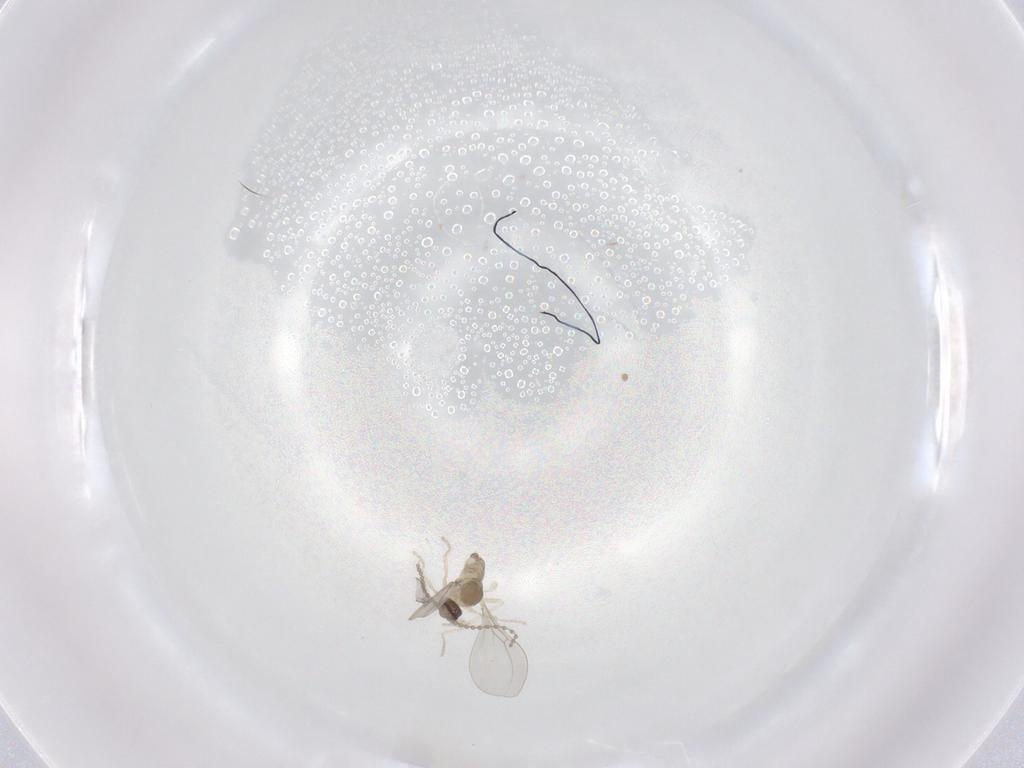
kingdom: Animalia
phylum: Arthropoda
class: Insecta
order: Diptera
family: Cecidomyiidae
